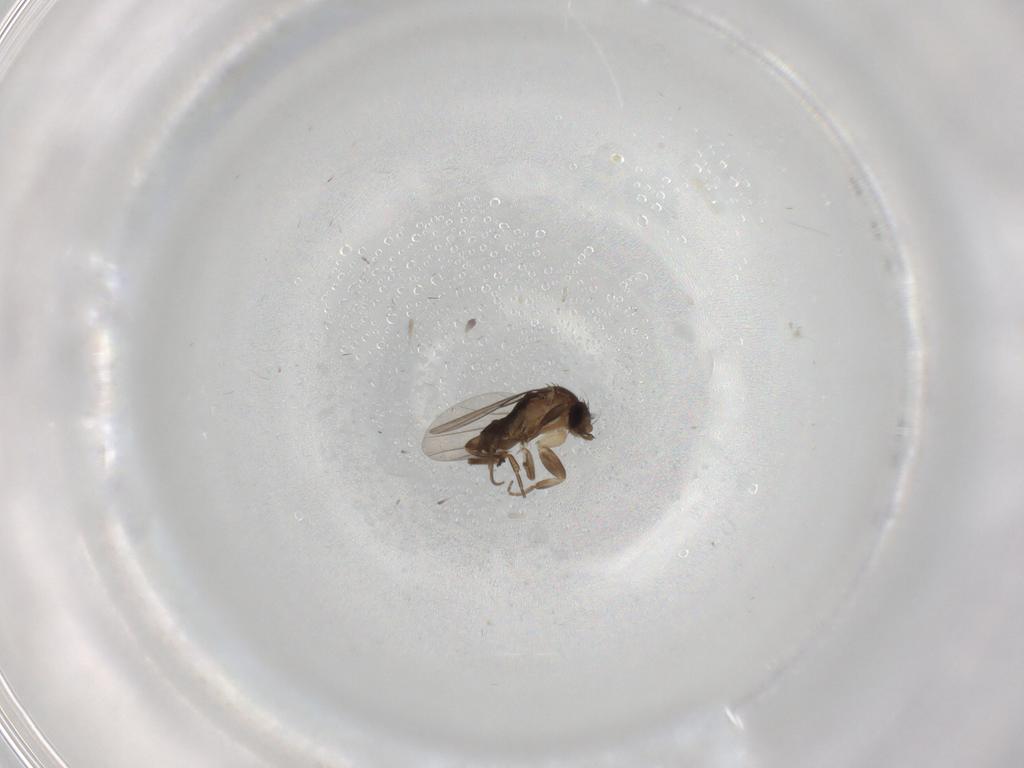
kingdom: Animalia
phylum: Arthropoda
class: Insecta
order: Diptera
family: Phoridae
